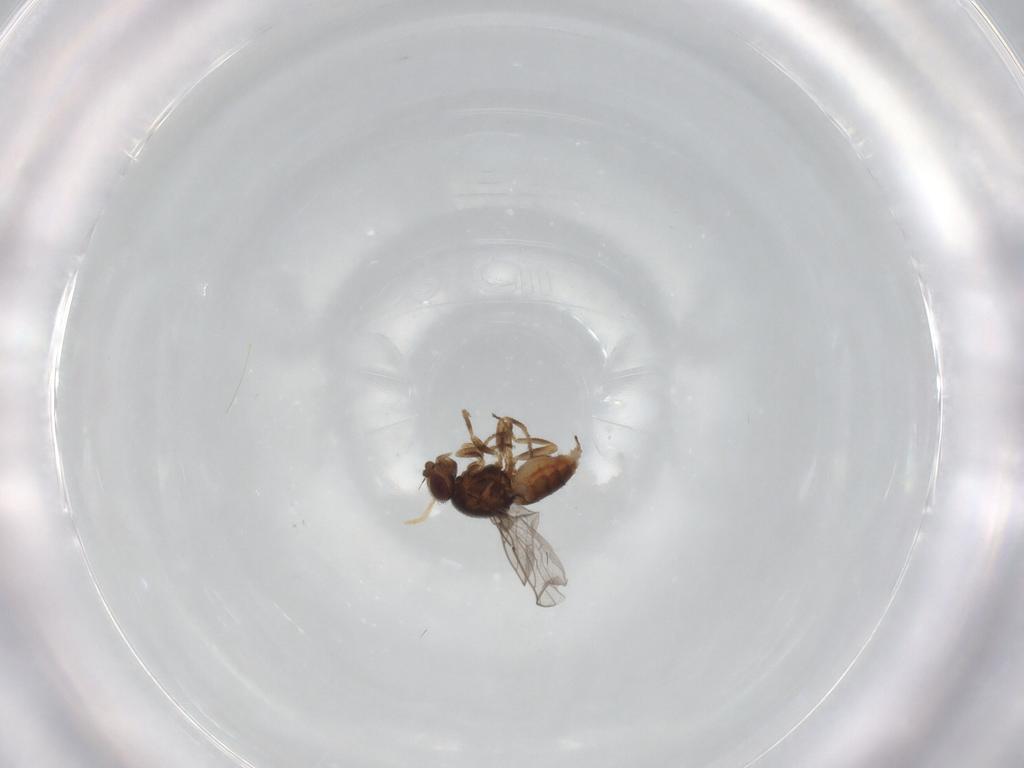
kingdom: Animalia
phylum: Arthropoda
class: Insecta
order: Diptera
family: Chloropidae
